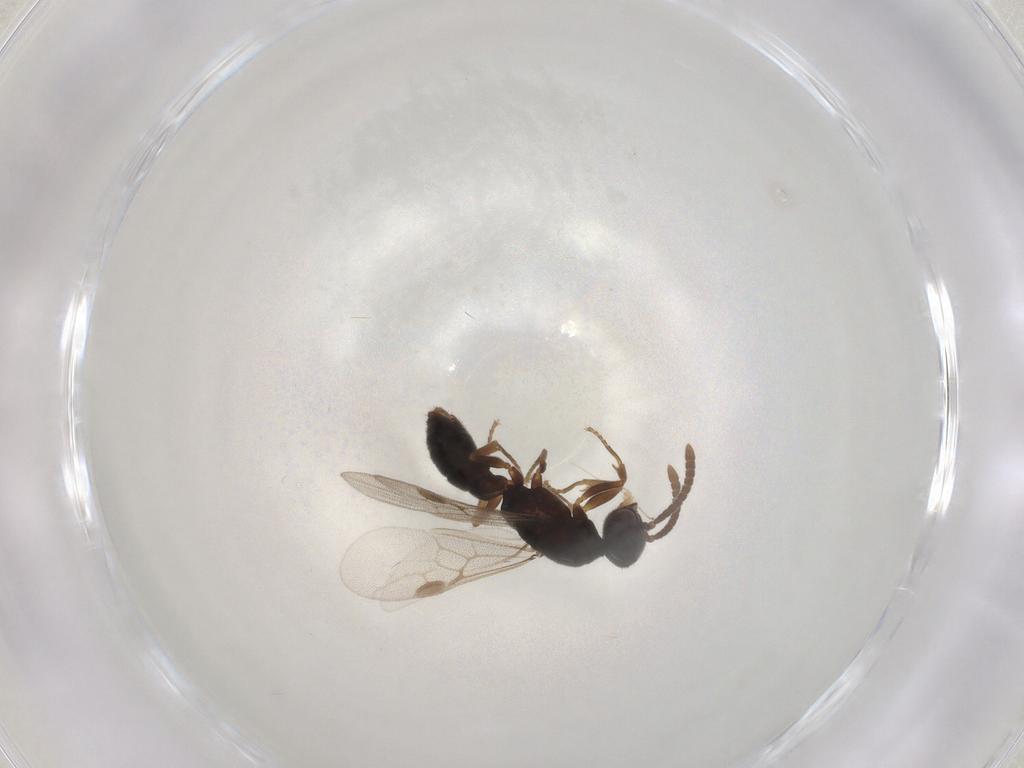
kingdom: Animalia
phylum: Arthropoda
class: Insecta
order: Hymenoptera
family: Formicidae
